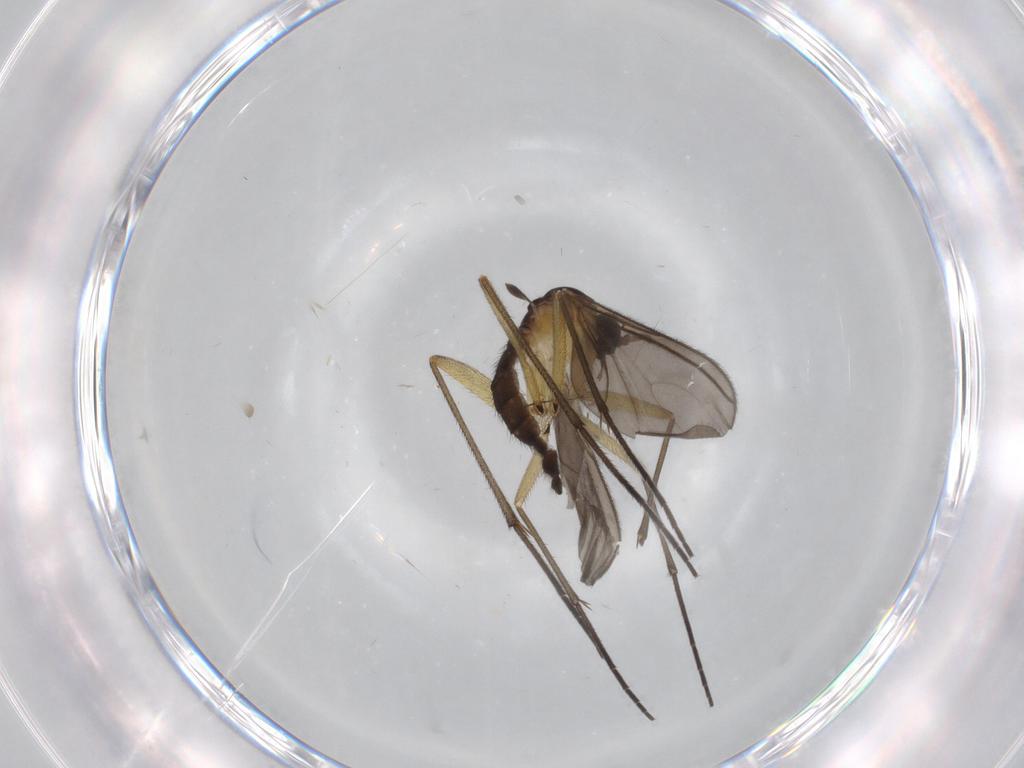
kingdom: Animalia
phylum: Arthropoda
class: Insecta
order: Diptera
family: Sciaridae
